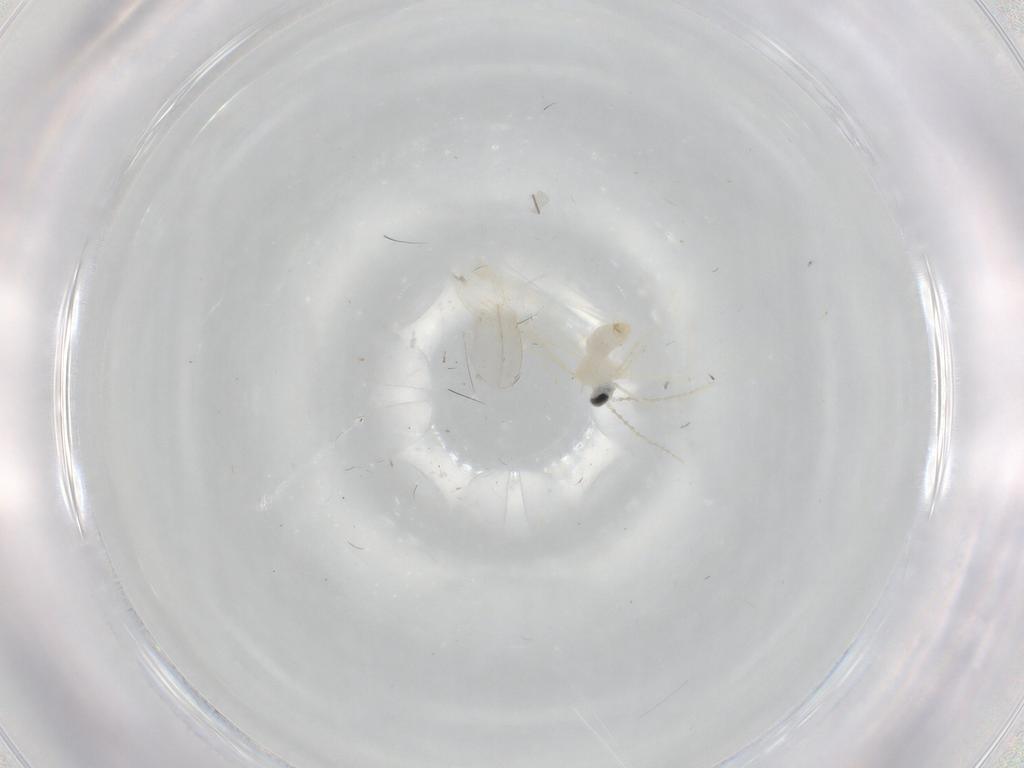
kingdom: Animalia
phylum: Arthropoda
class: Insecta
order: Diptera
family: Cecidomyiidae
